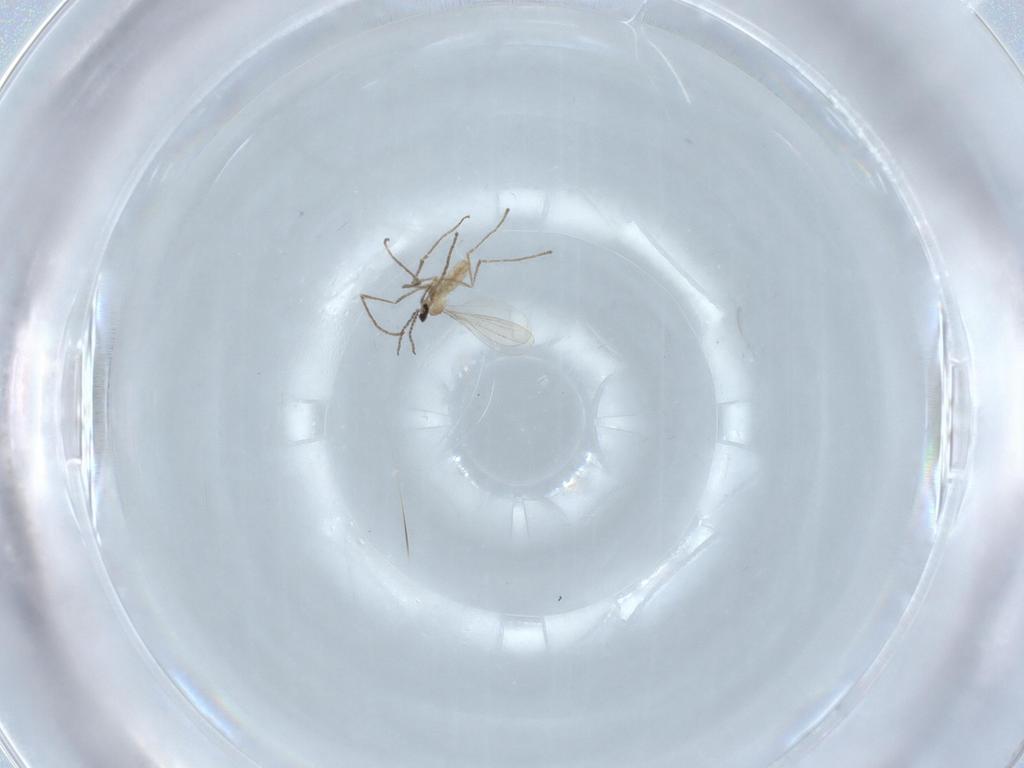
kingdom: Animalia
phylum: Arthropoda
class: Insecta
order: Diptera
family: Cecidomyiidae
